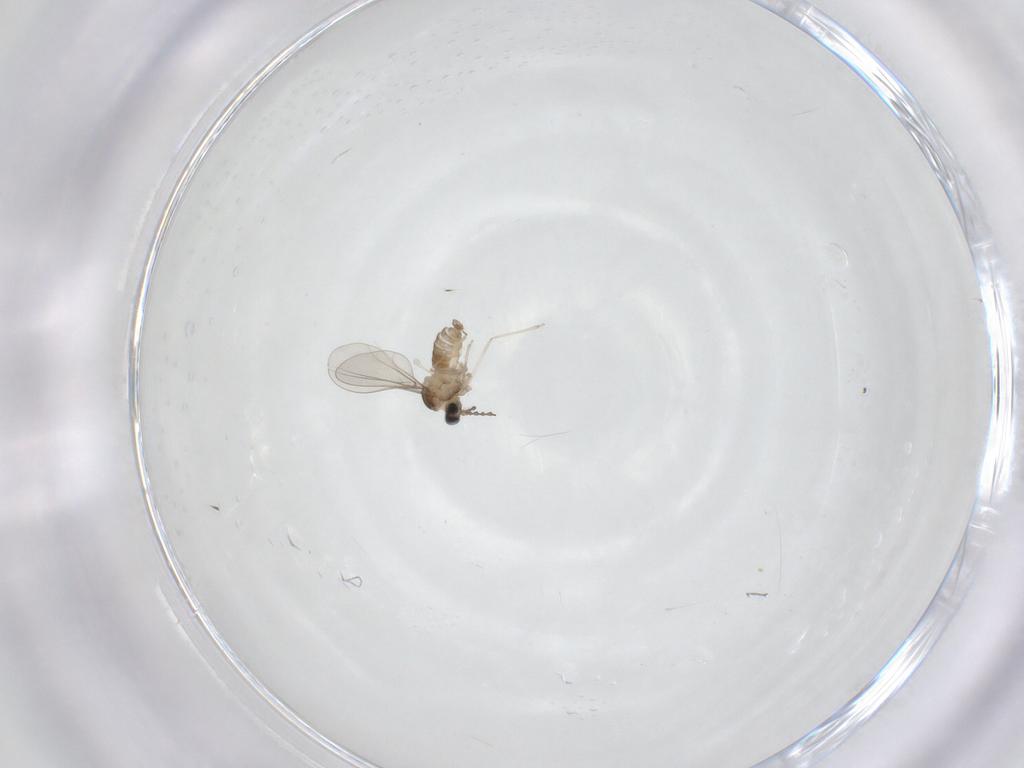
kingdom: Animalia
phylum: Arthropoda
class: Insecta
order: Diptera
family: Cecidomyiidae
